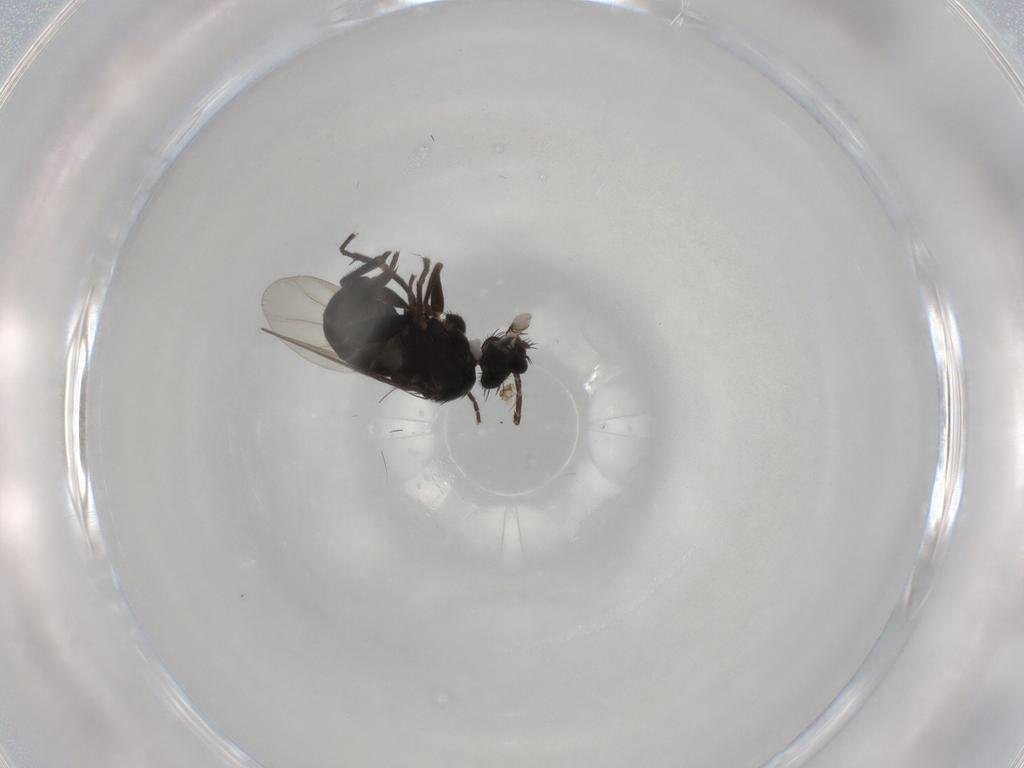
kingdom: Animalia
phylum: Arthropoda
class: Insecta
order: Diptera
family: Phoridae
